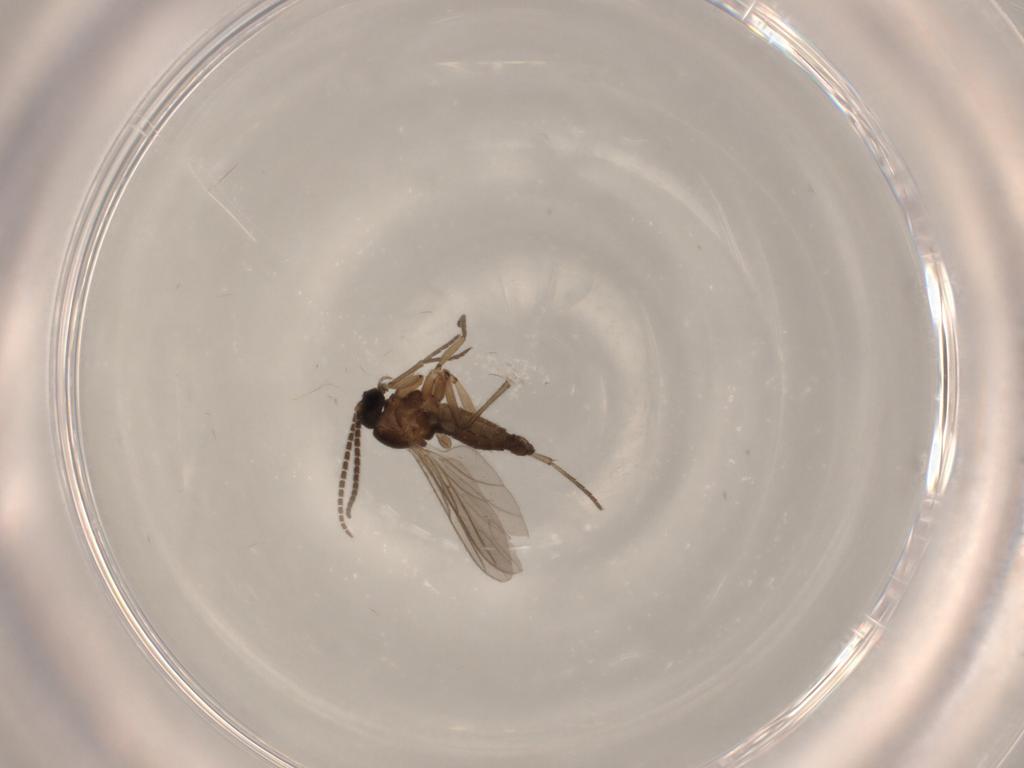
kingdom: Animalia
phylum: Arthropoda
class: Insecta
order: Diptera
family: Sciaridae
